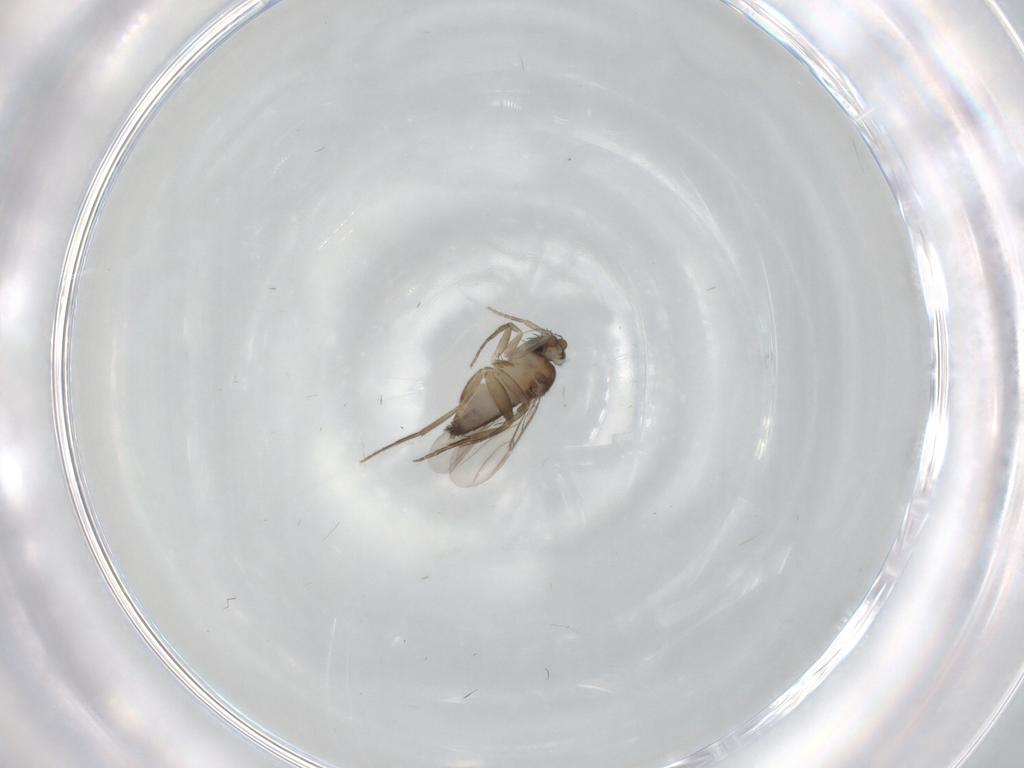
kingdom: Animalia
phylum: Arthropoda
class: Insecta
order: Diptera
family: Phoridae
